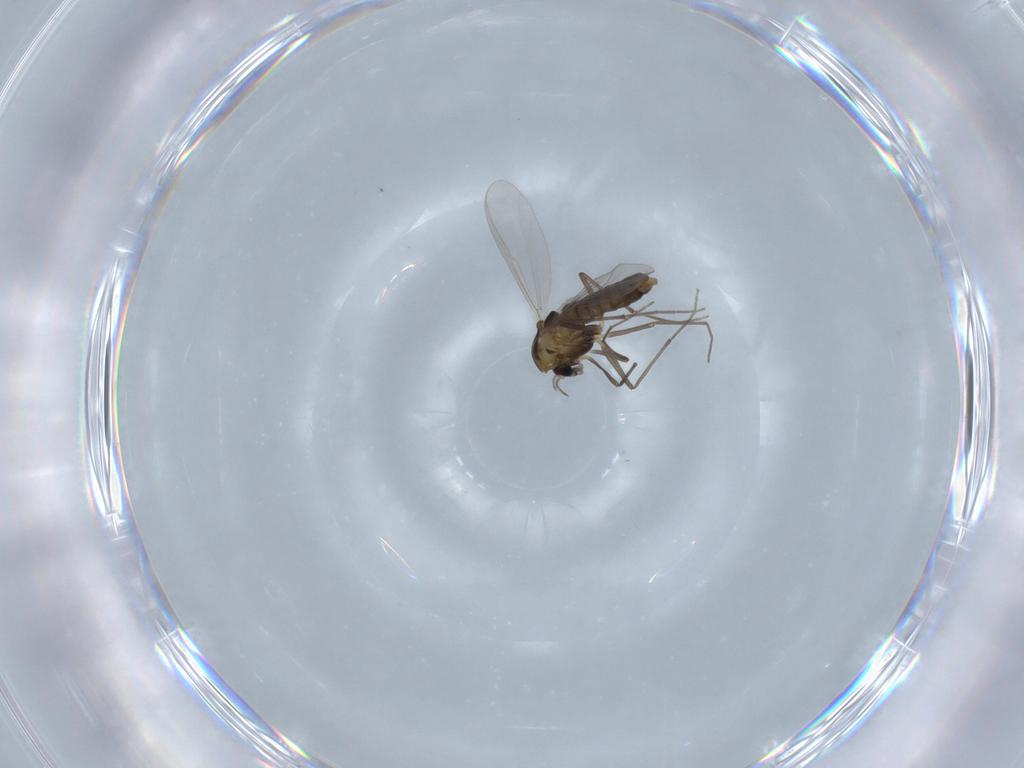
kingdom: Animalia
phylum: Arthropoda
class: Insecta
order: Diptera
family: Chironomidae
